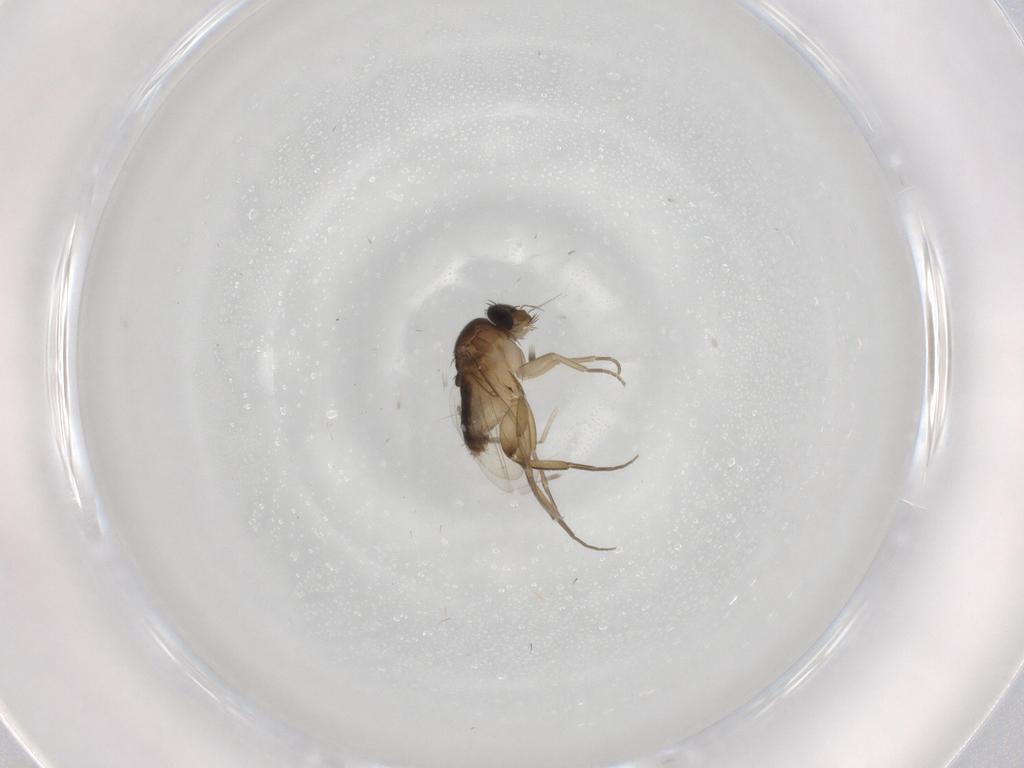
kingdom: Animalia
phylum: Arthropoda
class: Insecta
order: Diptera
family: Phoridae
